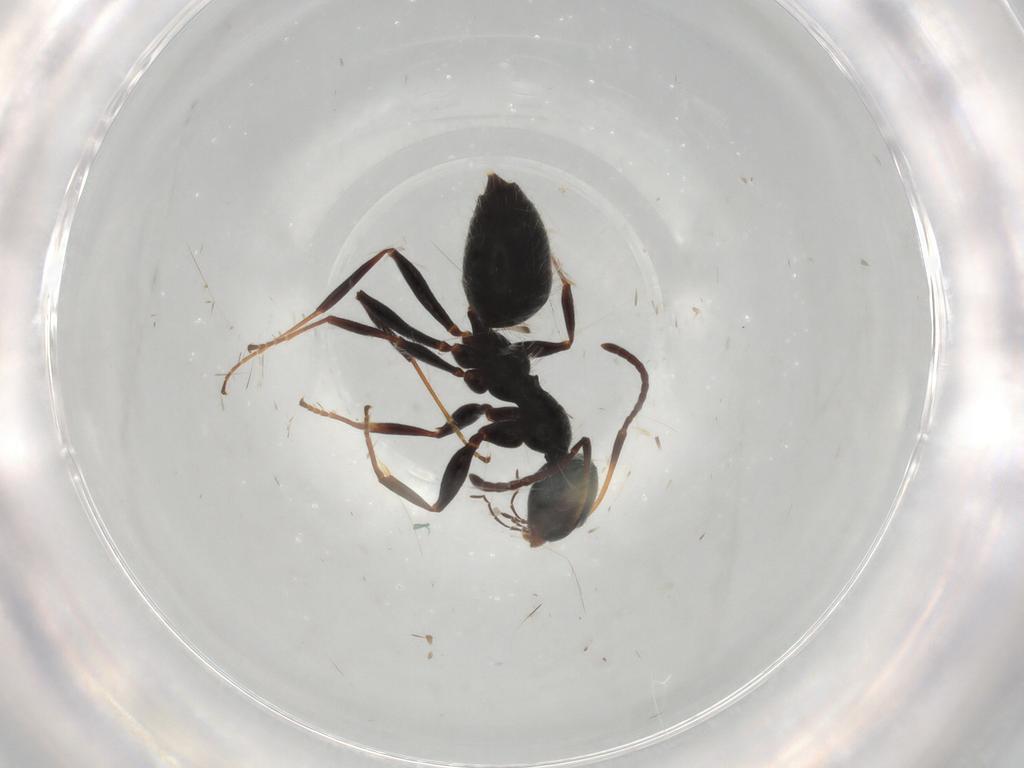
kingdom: Animalia
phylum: Arthropoda
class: Insecta
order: Hymenoptera
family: Formicidae
